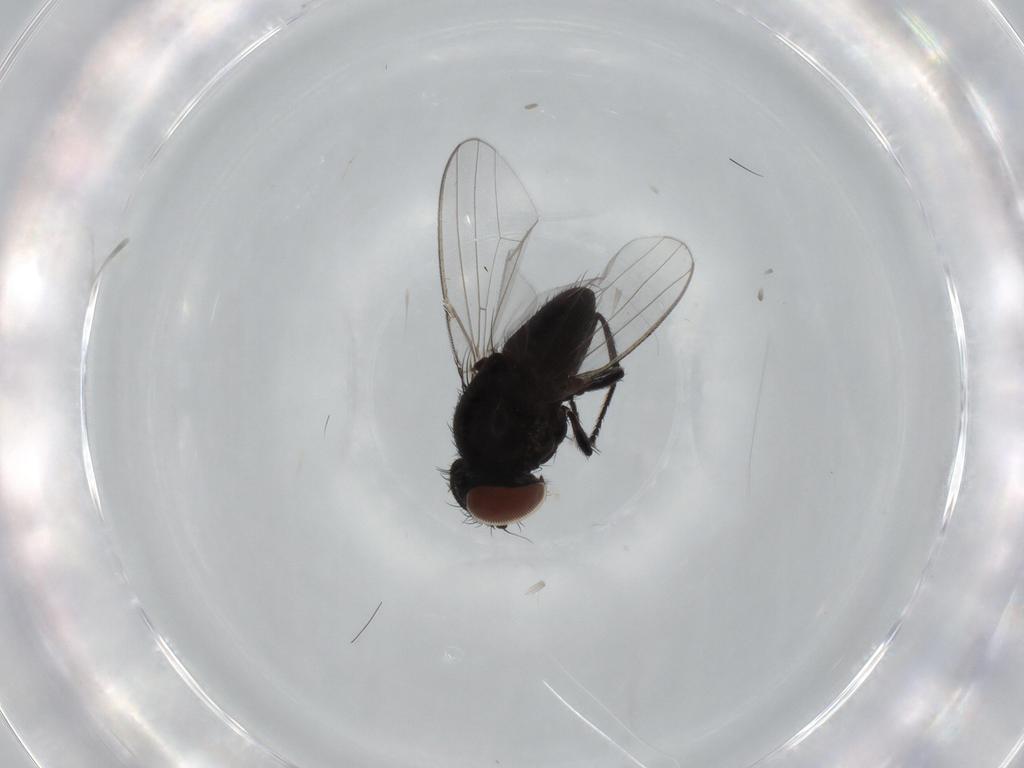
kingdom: Animalia
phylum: Arthropoda
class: Insecta
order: Diptera
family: Milichiidae
